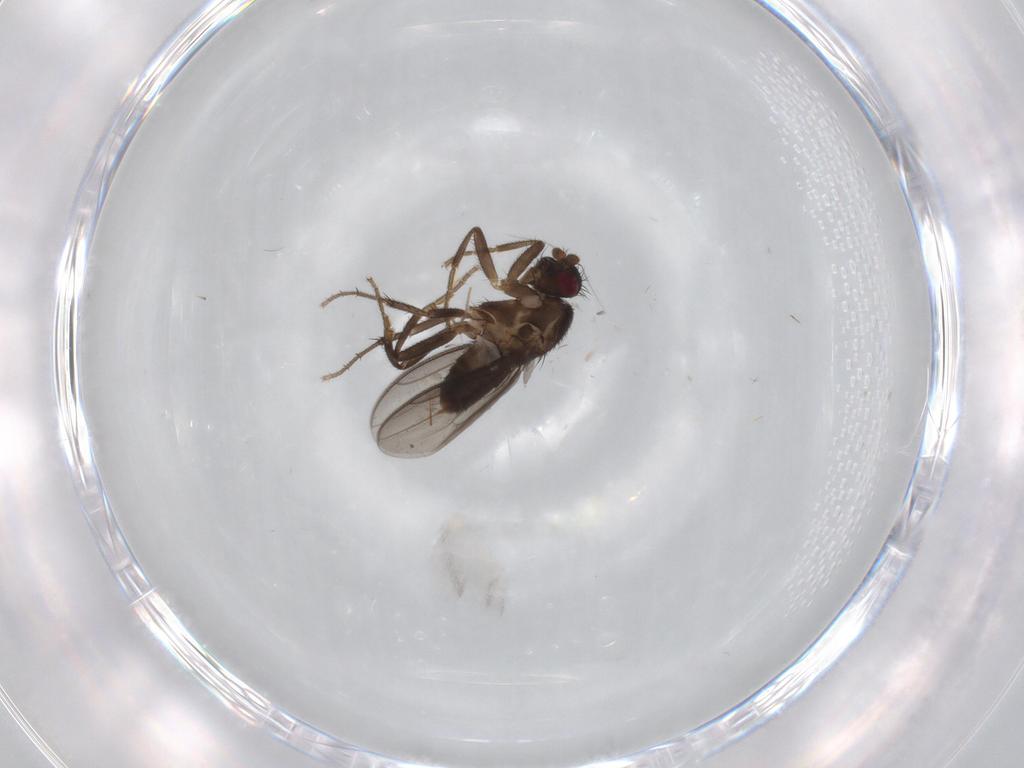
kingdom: Animalia
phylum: Arthropoda
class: Insecta
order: Diptera
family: Sphaeroceridae
